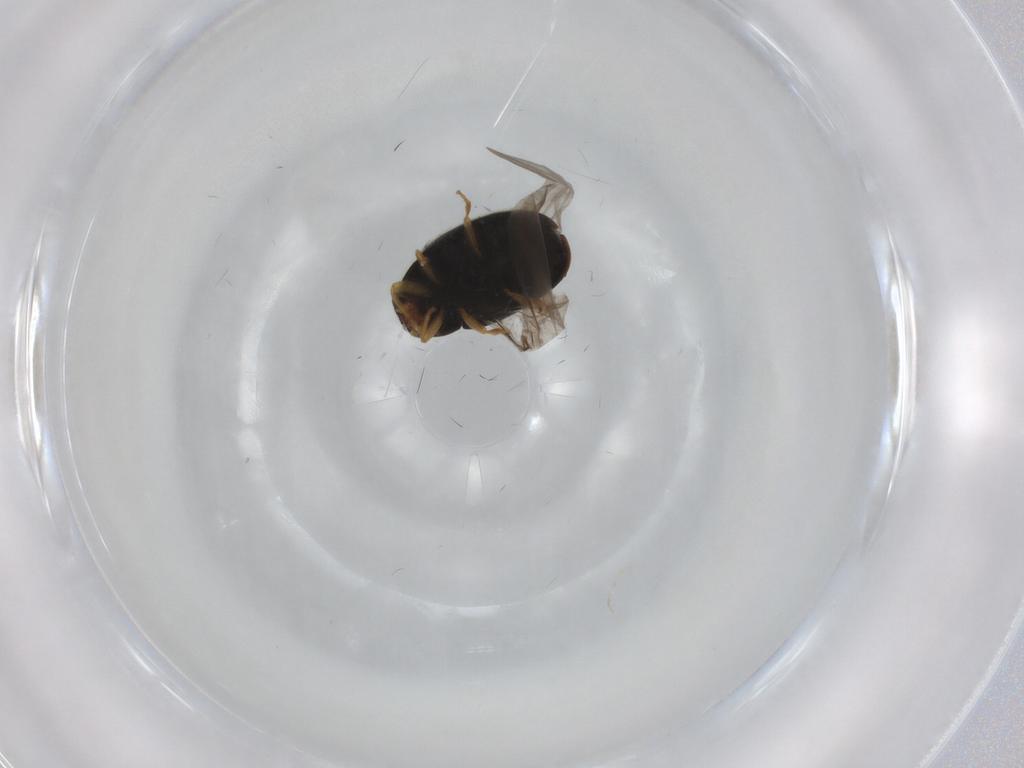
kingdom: Animalia
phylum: Arthropoda
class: Insecta
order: Coleoptera
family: Coccinellidae
